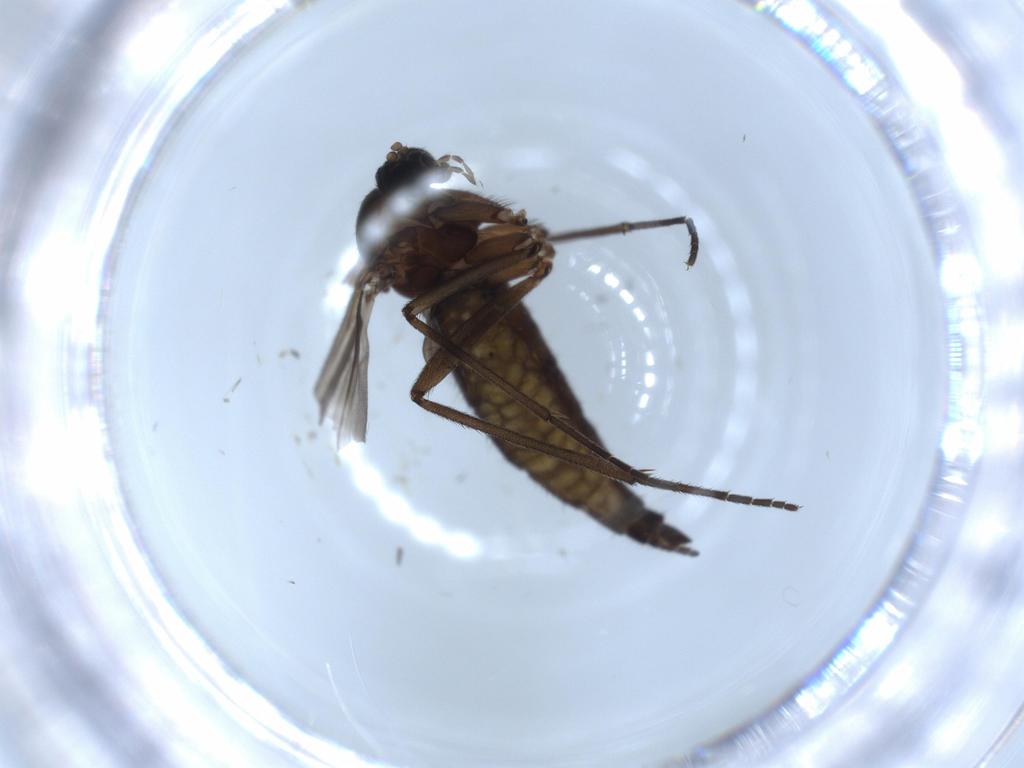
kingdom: Animalia
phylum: Arthropoda
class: Insecta
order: Diptera
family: Sciaridae
